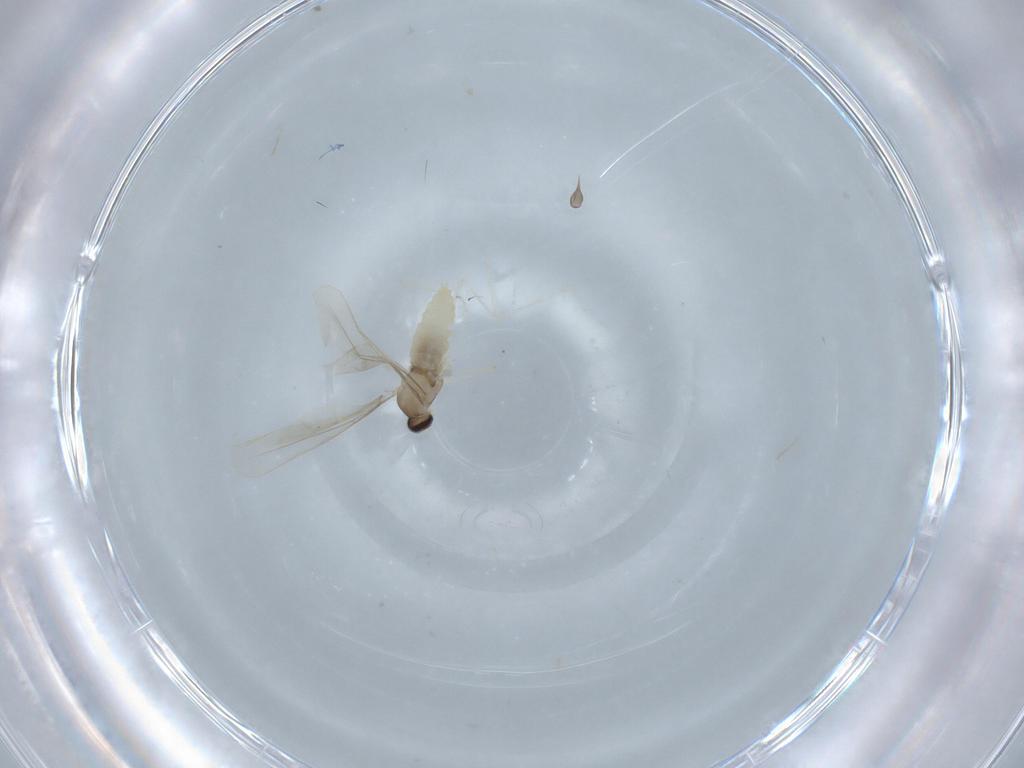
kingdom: Animalia
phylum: Arthropoda
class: Insecta
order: Diptera
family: Cecidomyiidae
